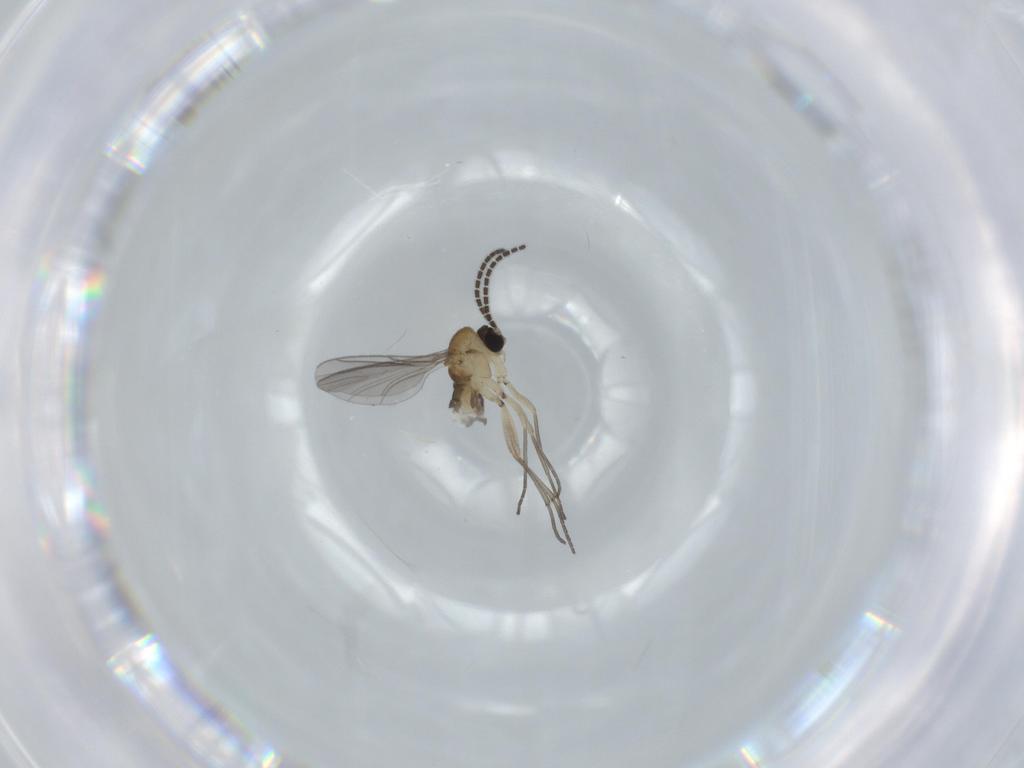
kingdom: Animalia
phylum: Arthropoda
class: Insecta
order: Diptera
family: Sciaridae
